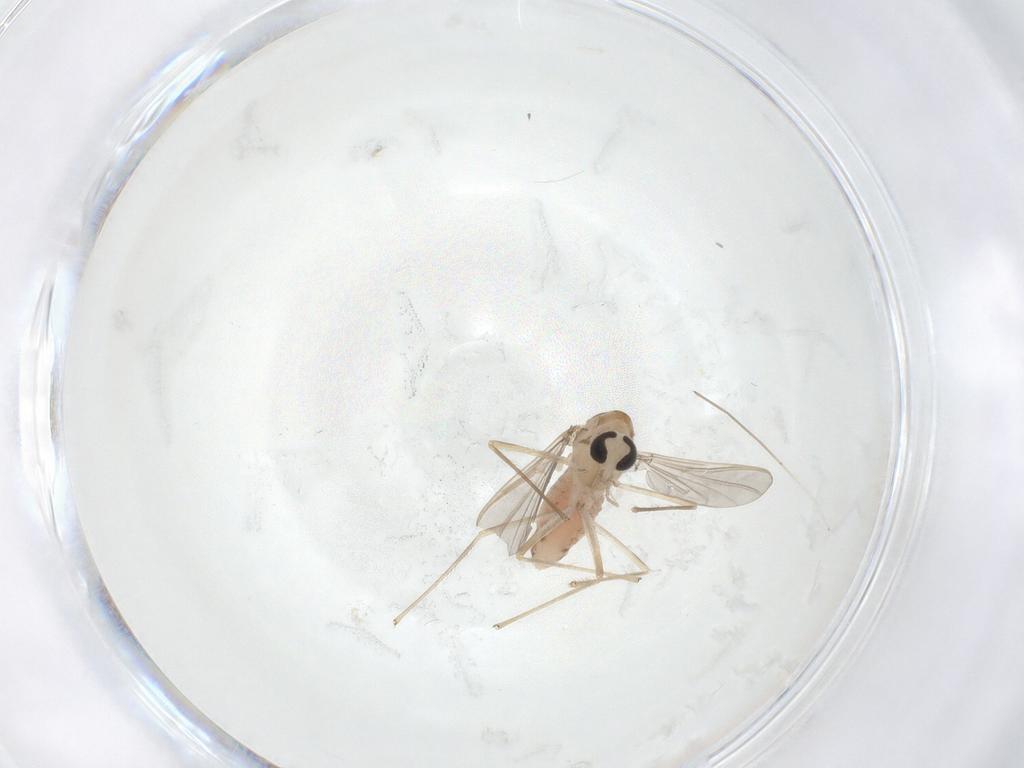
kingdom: Animalia
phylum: Arthropoda
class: Insecta
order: Diptera
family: Chironomidae
